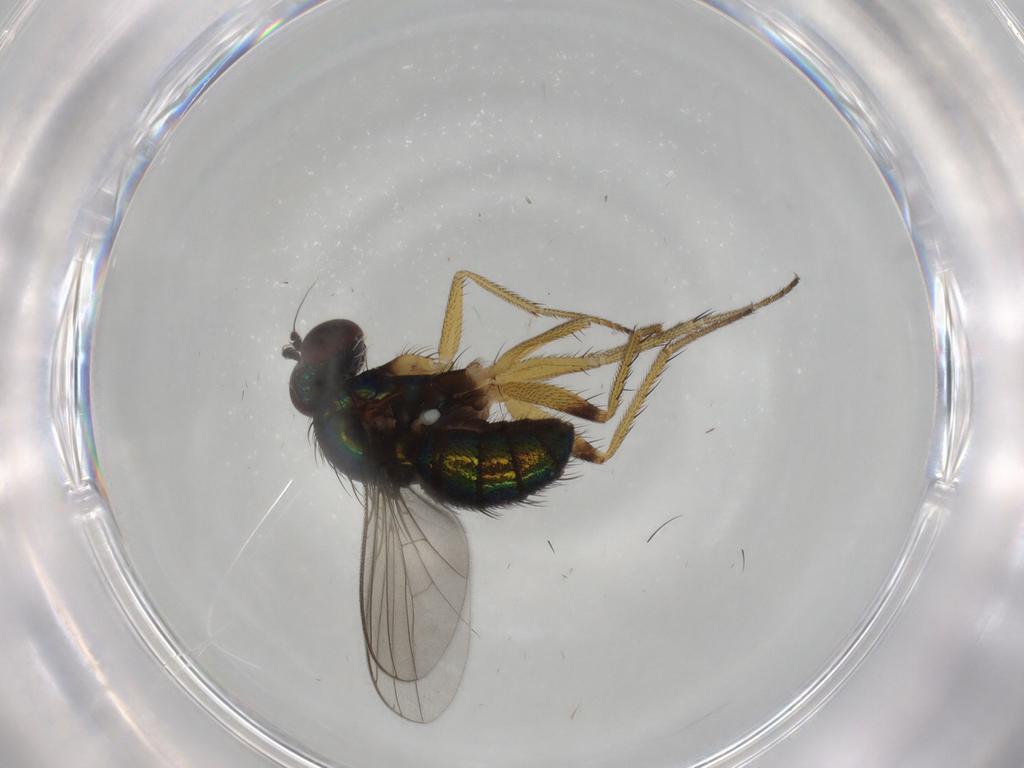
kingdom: Animalia
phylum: Arthropoda
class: Insecta
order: Diptera
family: Dolichopodidae
